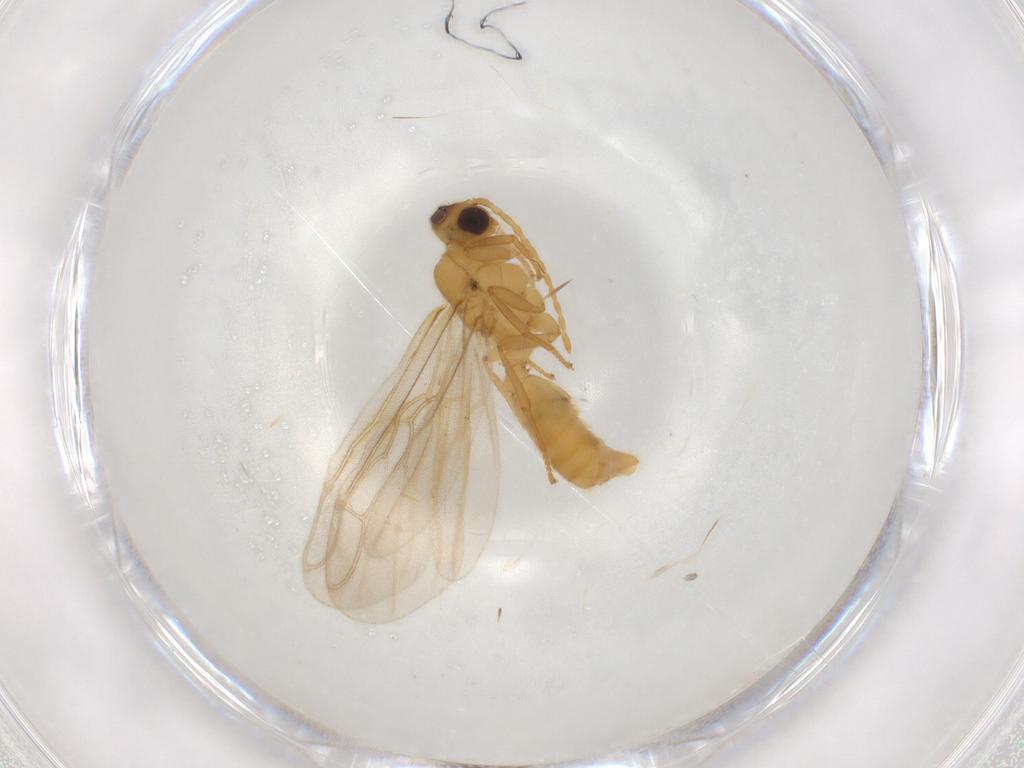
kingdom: Animalia
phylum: Arthropoda
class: Insecta
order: Hymenoptera
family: Formicidae
